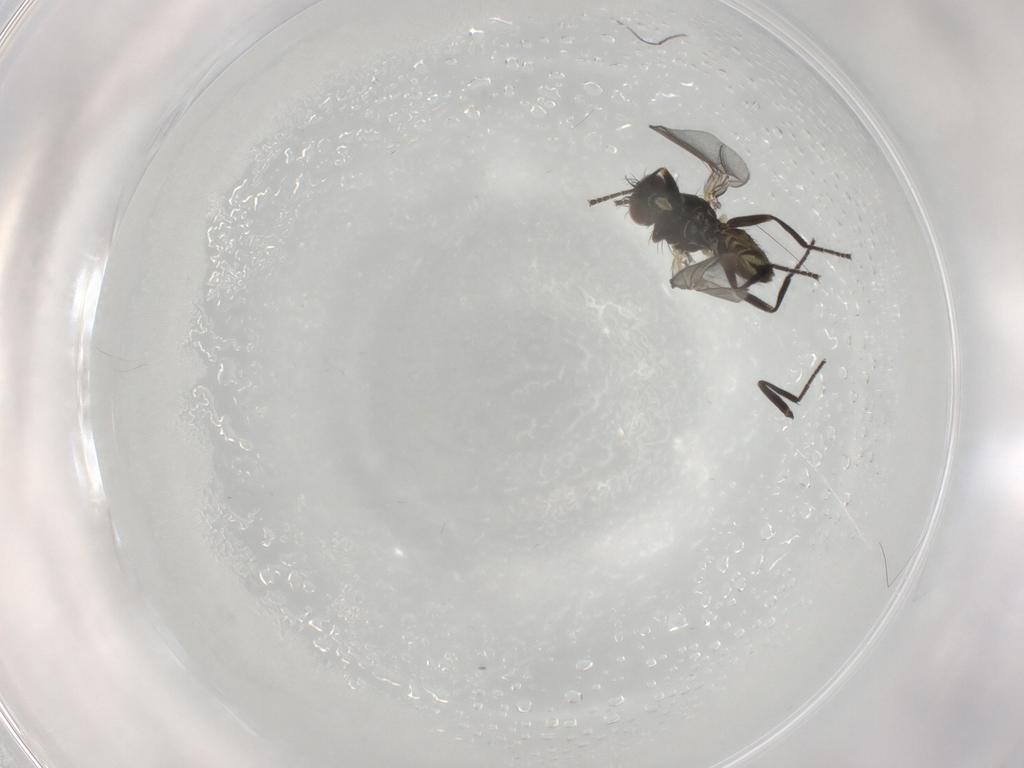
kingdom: Animalia
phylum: Arthropoda
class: Insecta
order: Diptera
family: Agromyzidae
